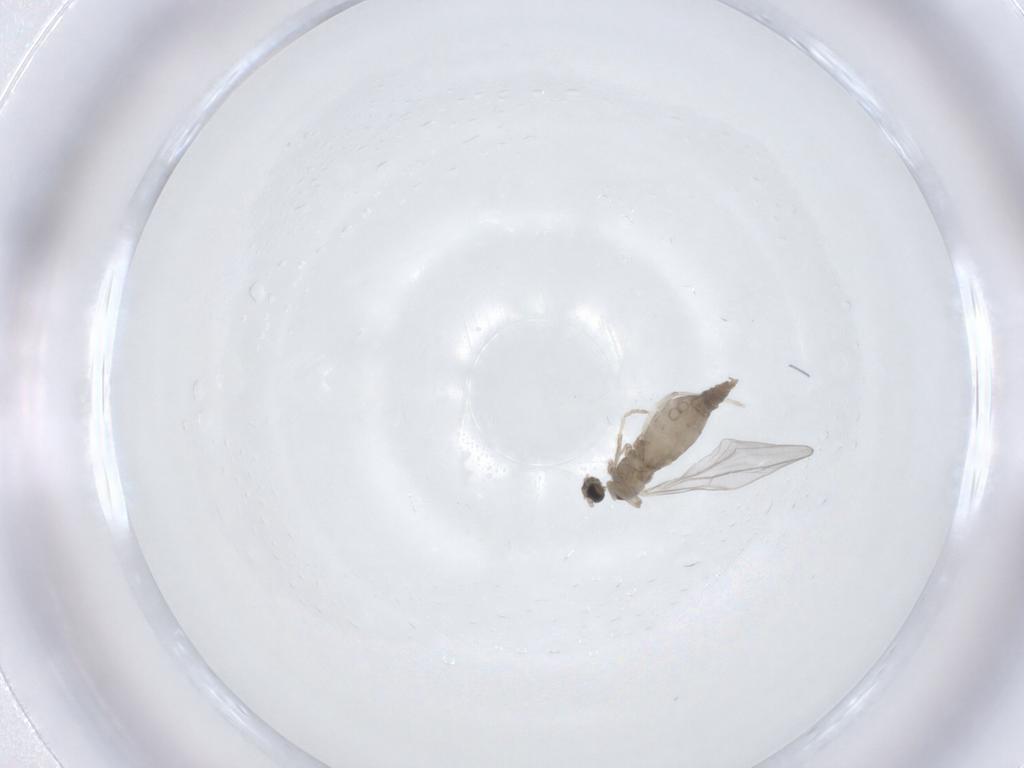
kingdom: Animalia
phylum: Arthropoda
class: Insecta
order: Diptera
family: Cecidomyiidae
